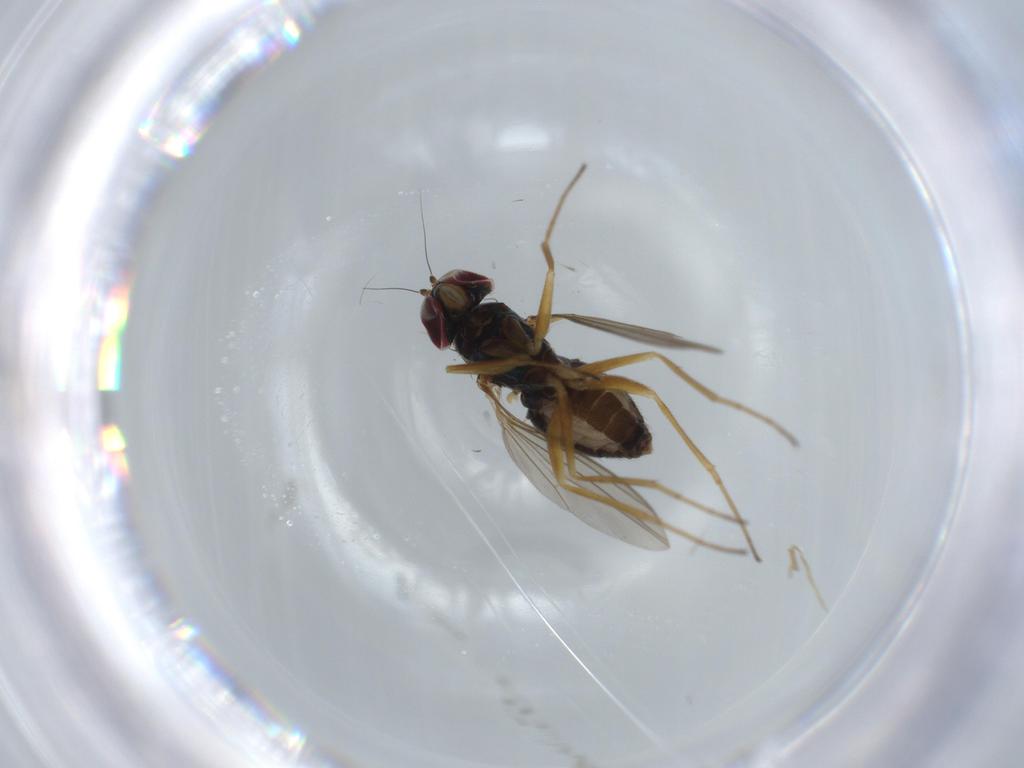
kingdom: Animalia
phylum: Arthropoda
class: Insecta
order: Diptera
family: Dolichopodidae
